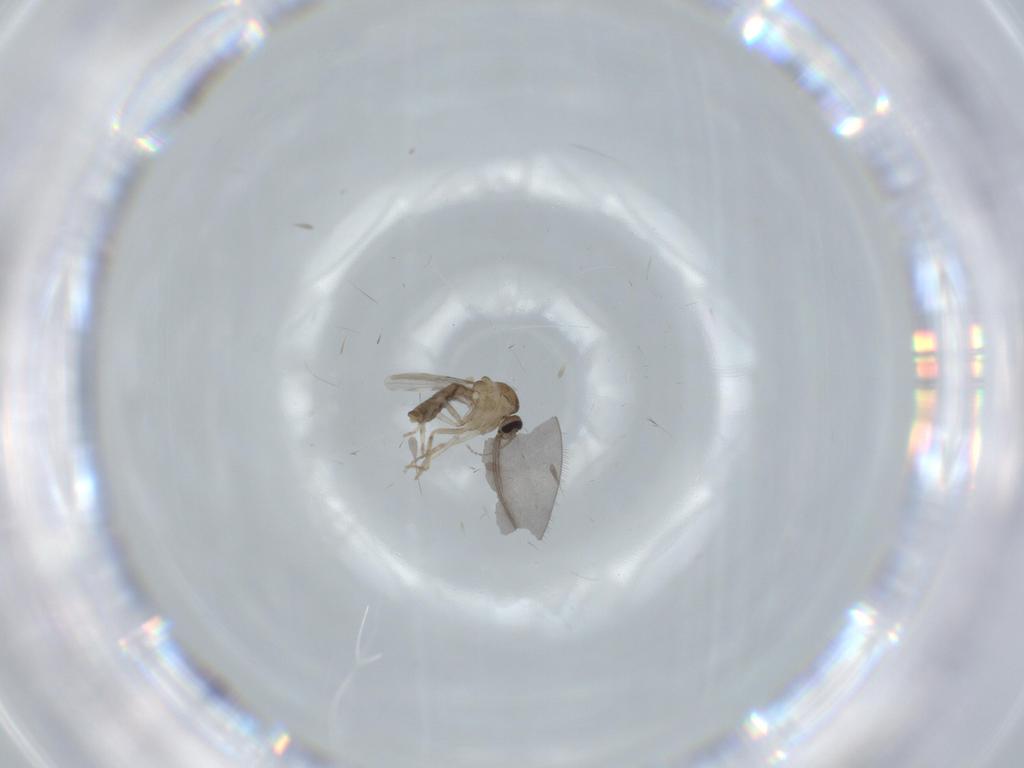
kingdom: Animalia
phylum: Arthropoda
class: Insecta
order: Diptera
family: Ceratopogonidae
